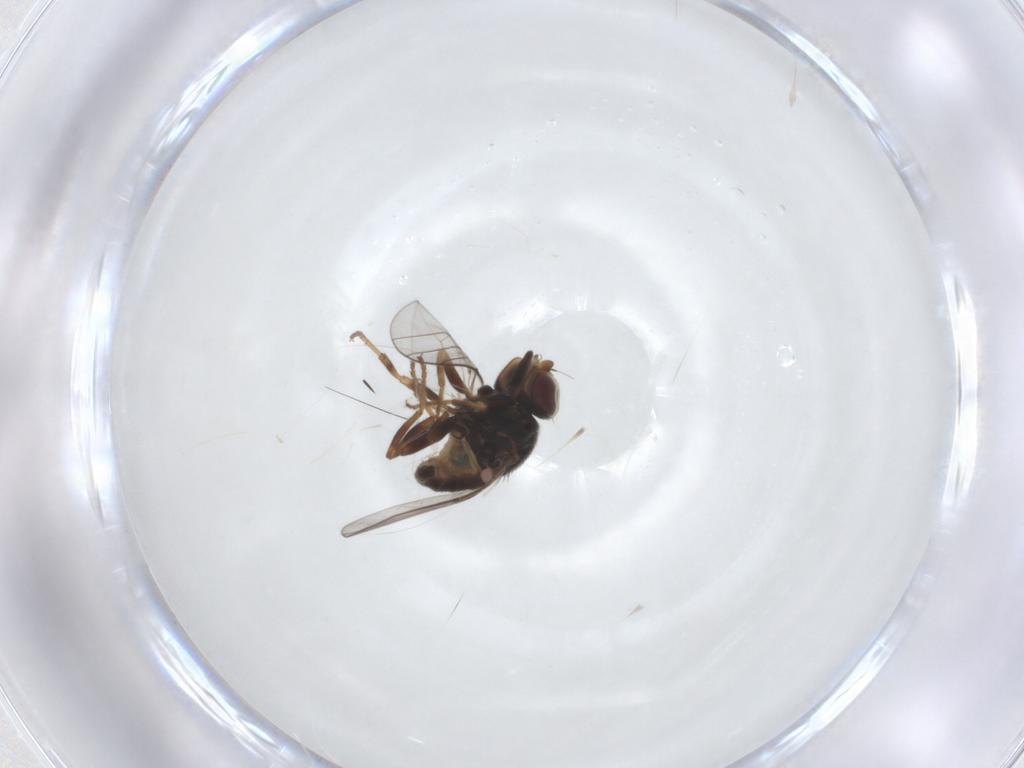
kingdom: Animalia
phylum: Arthropoda
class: Insecta
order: Diptera
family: Chloropidae
